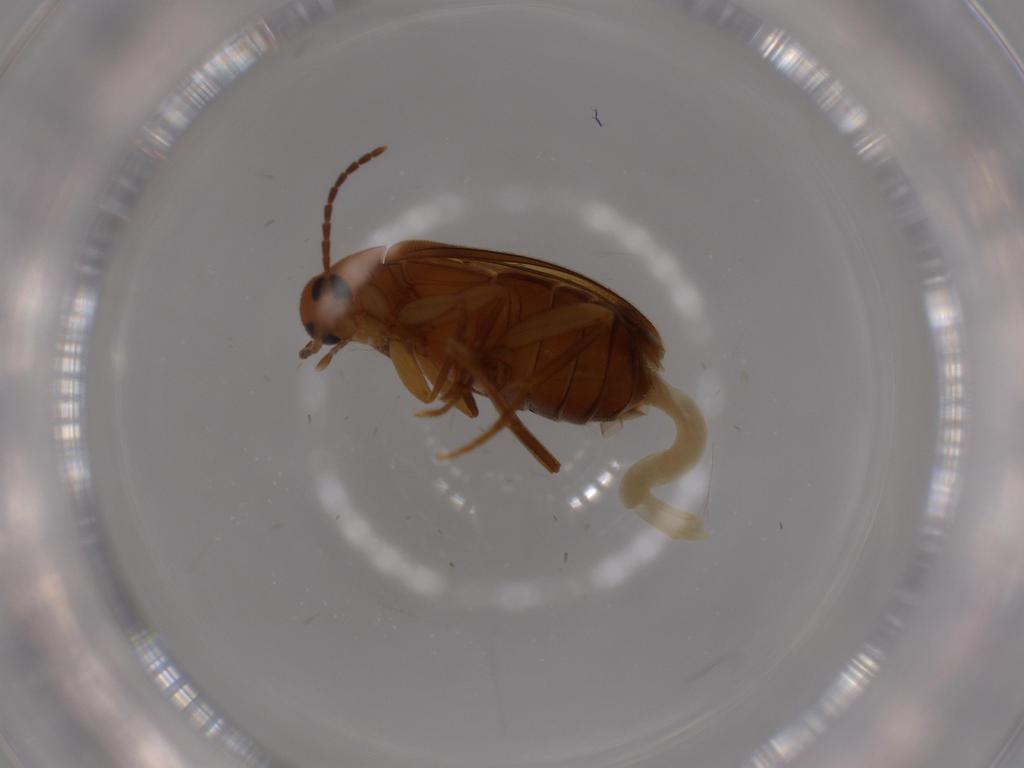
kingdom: Animalia
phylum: Arthropoda
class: Insecta
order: Coleoptera
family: Scraptiidae
